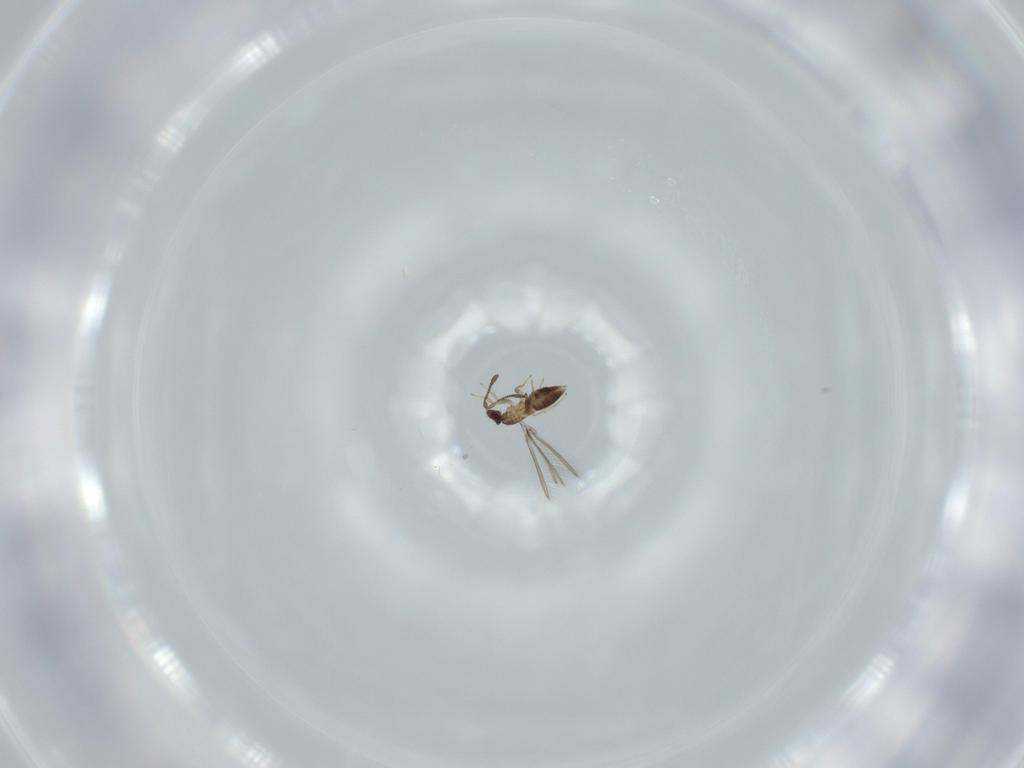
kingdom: Animalia
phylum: Arthropoda
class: Insecta
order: Hymenoptera
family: Mymaridae
